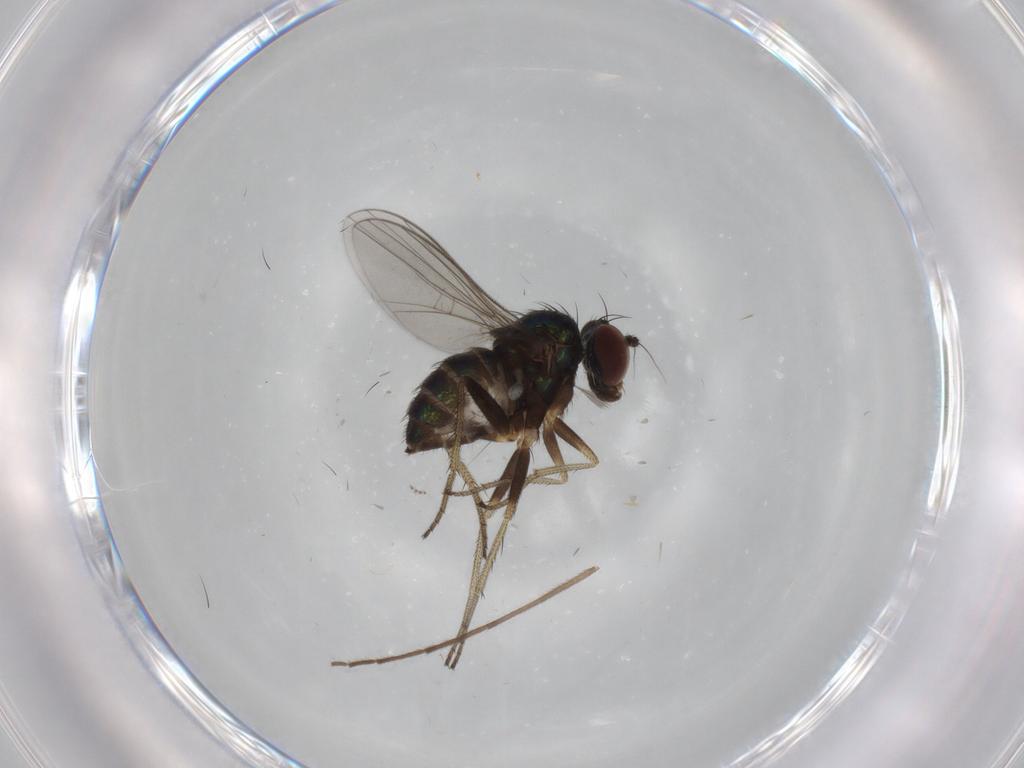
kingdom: Animalia
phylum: Arthropoda
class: Insecta
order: Diptera
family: Dolichopodidae
